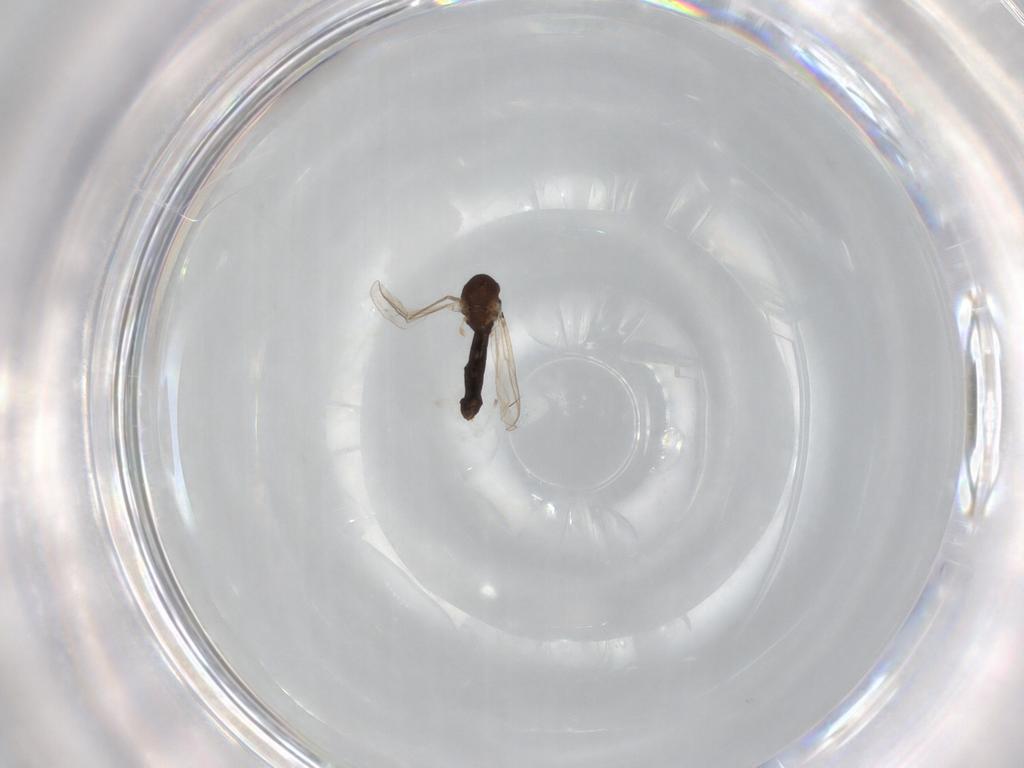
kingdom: Animalia
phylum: Arthropoda
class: Insecta
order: Diptera
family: Chironomidae
